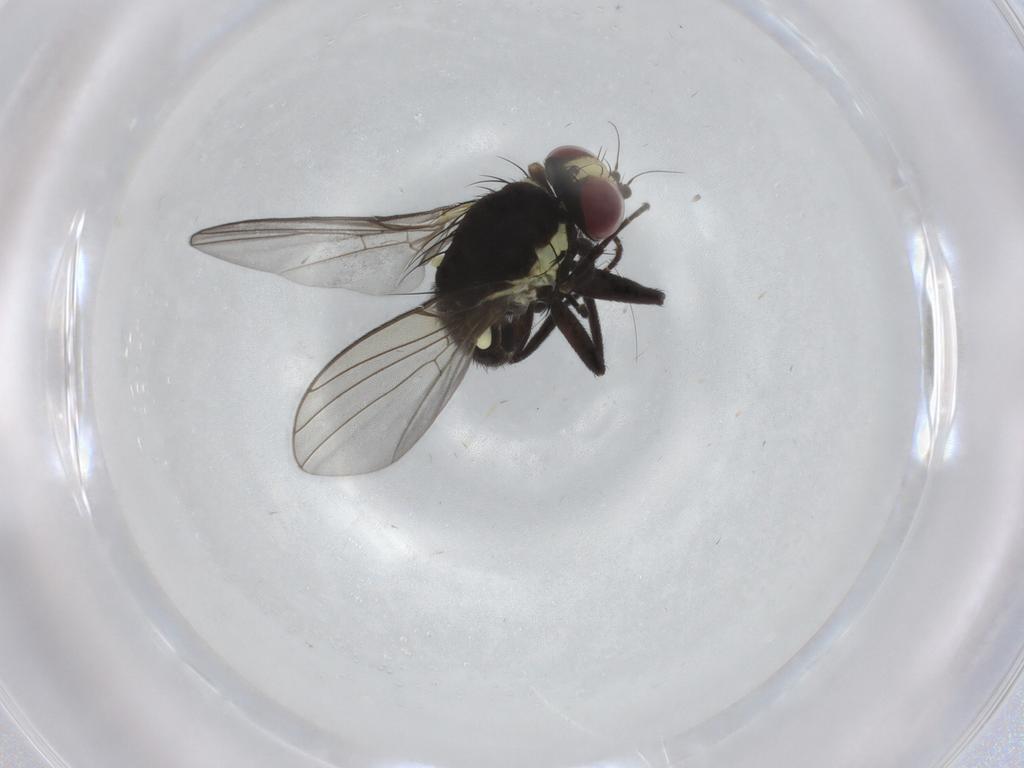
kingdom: Animalia
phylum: Arthropoda
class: Insecta
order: Diptera
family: Agromyzidae
